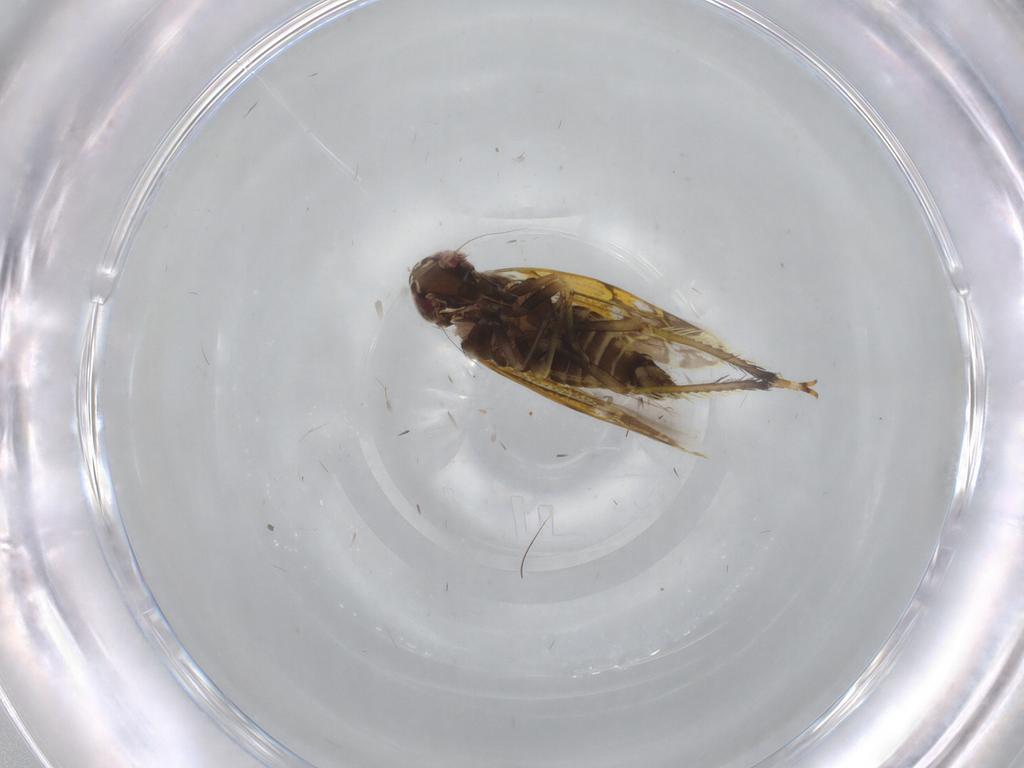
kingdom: Animalia
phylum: Arthropoda
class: Insecta
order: Hemiptera
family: Cicadellidae
